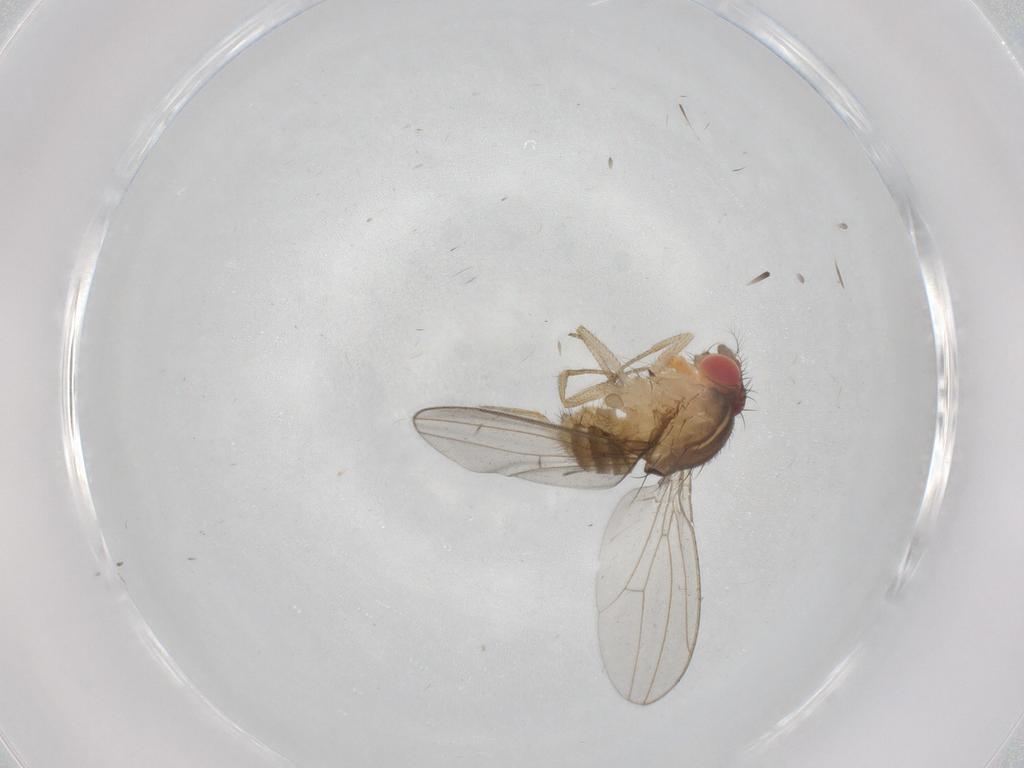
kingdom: Animalia
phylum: Arthropoda
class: Insecta
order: Diptera
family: Drosophilidae
